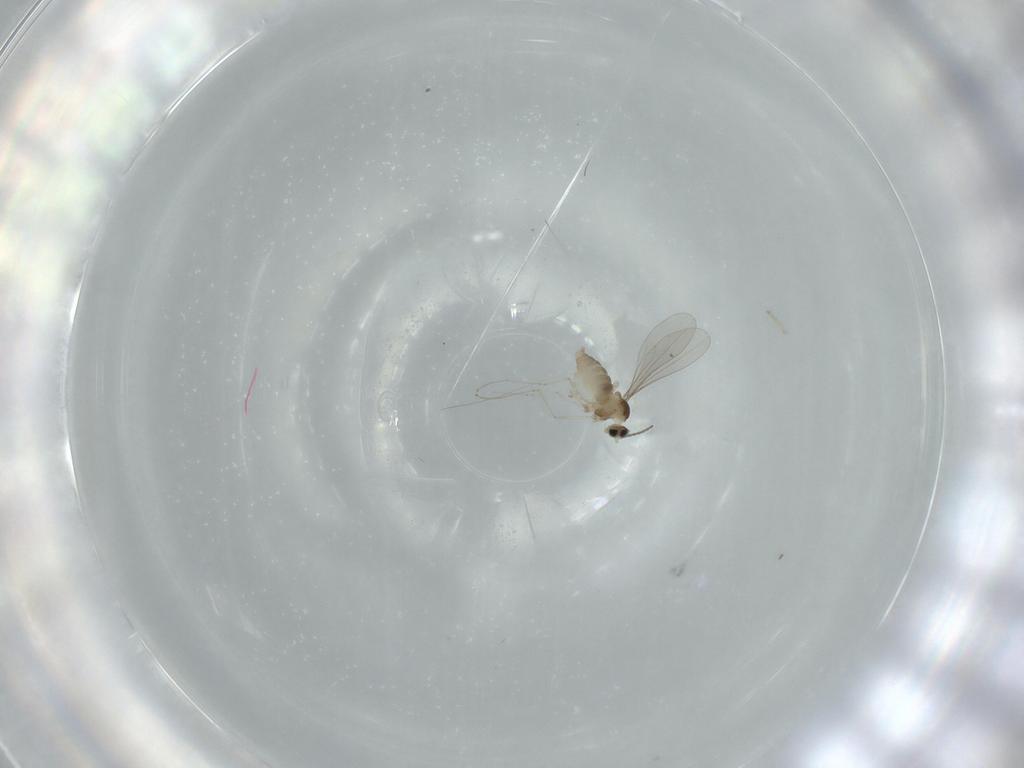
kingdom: Animalia
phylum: Arthropoda
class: Insecta
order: Diptera
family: Cecidomyiidae
